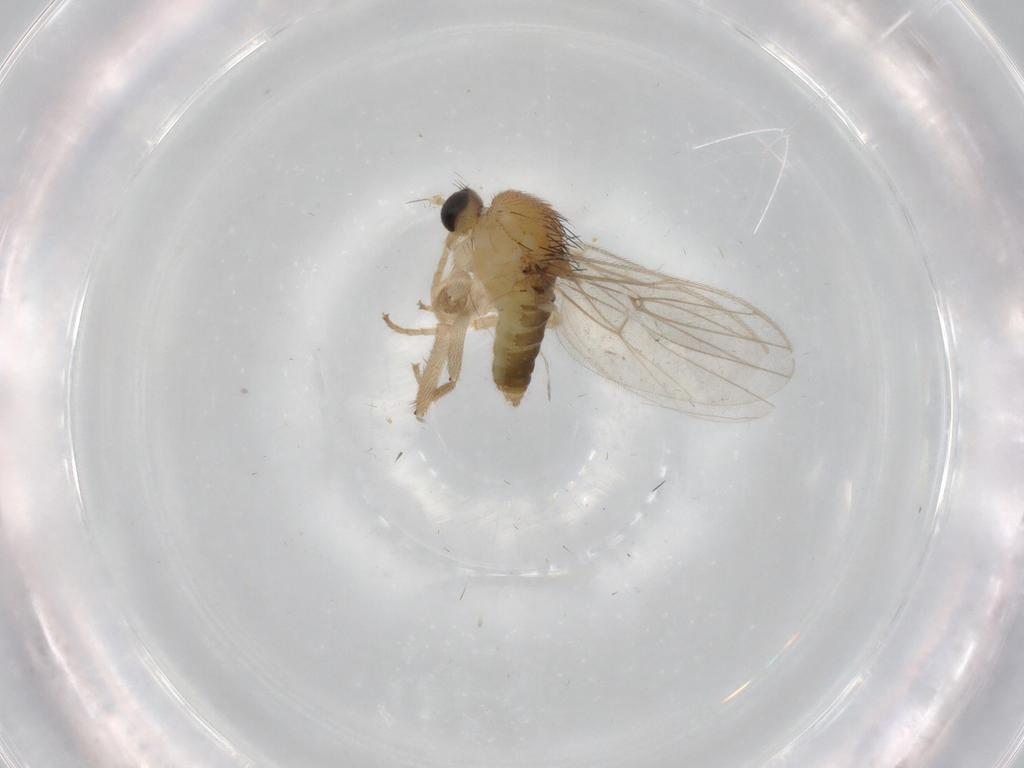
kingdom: Animalia
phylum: Arthropoda
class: Insecta
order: Diptera
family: Hybotidae
